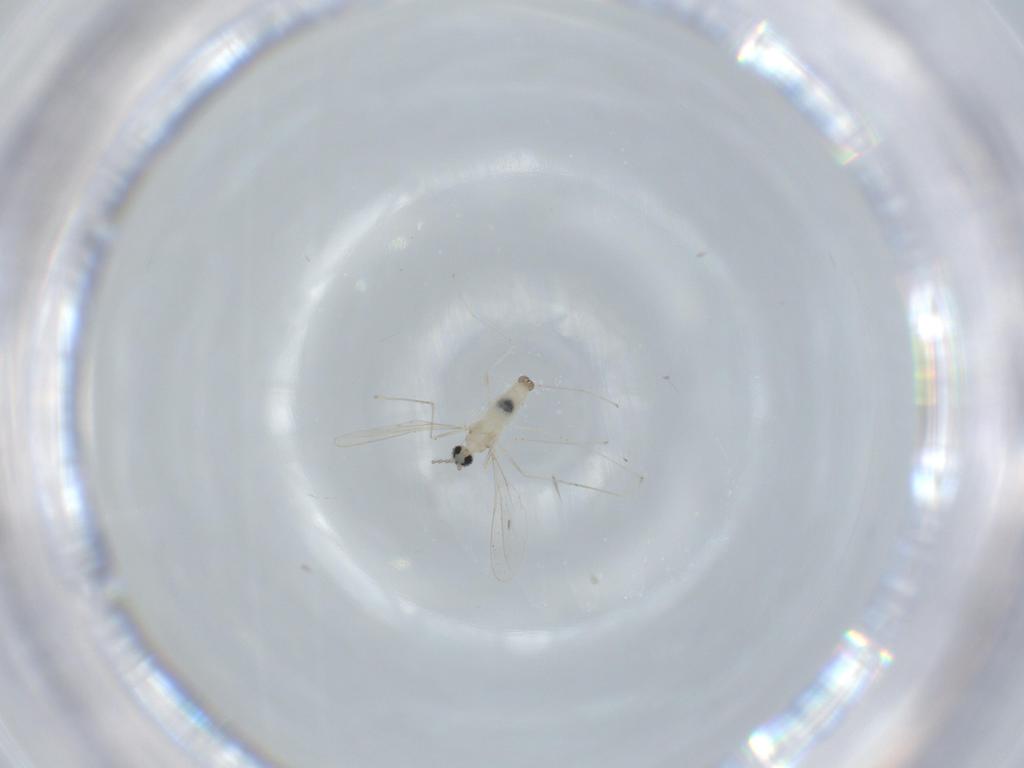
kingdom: Animalia
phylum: Arthropoda
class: Insecta
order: Diptera
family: Cecidomyiidae
